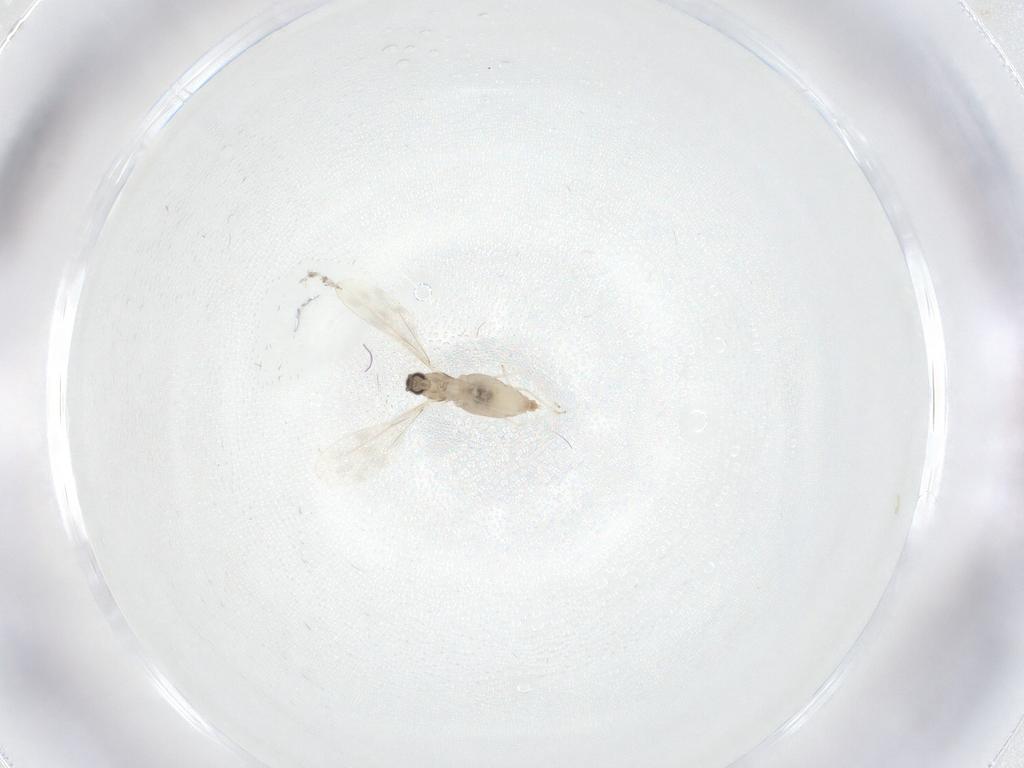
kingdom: Animalia
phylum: Arthropoda
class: Insecta
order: Diptera
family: Cecidomyiidae
